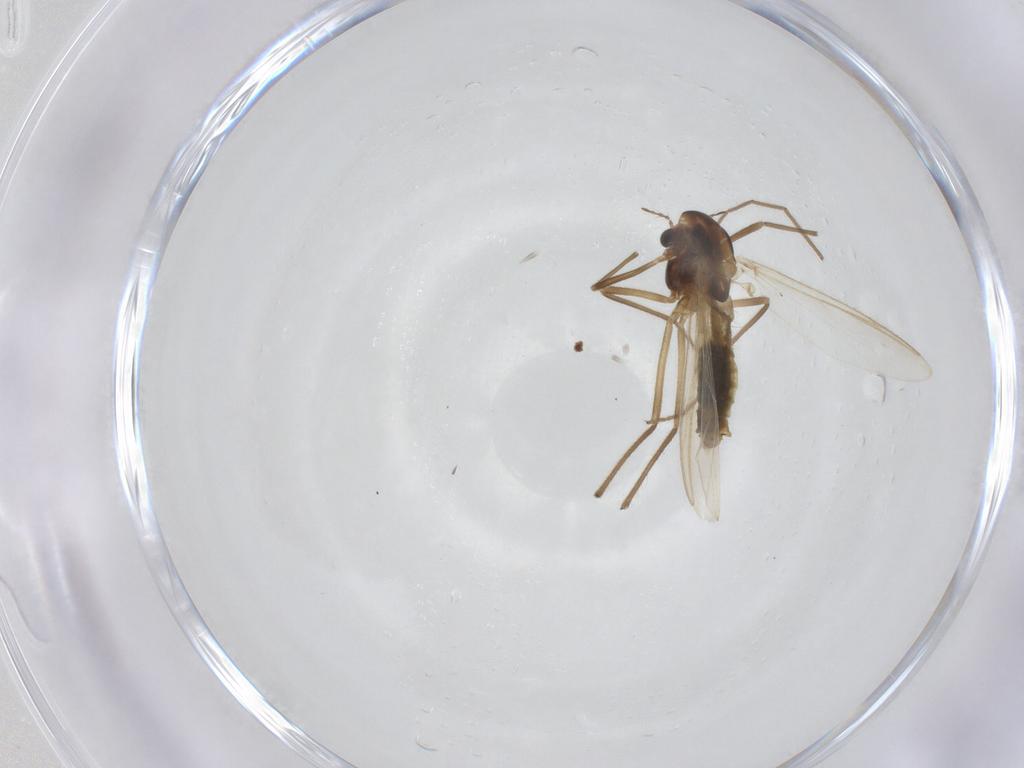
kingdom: Animalia
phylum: Arthropoda
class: Insecta
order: Diptera
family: Chironomidae
